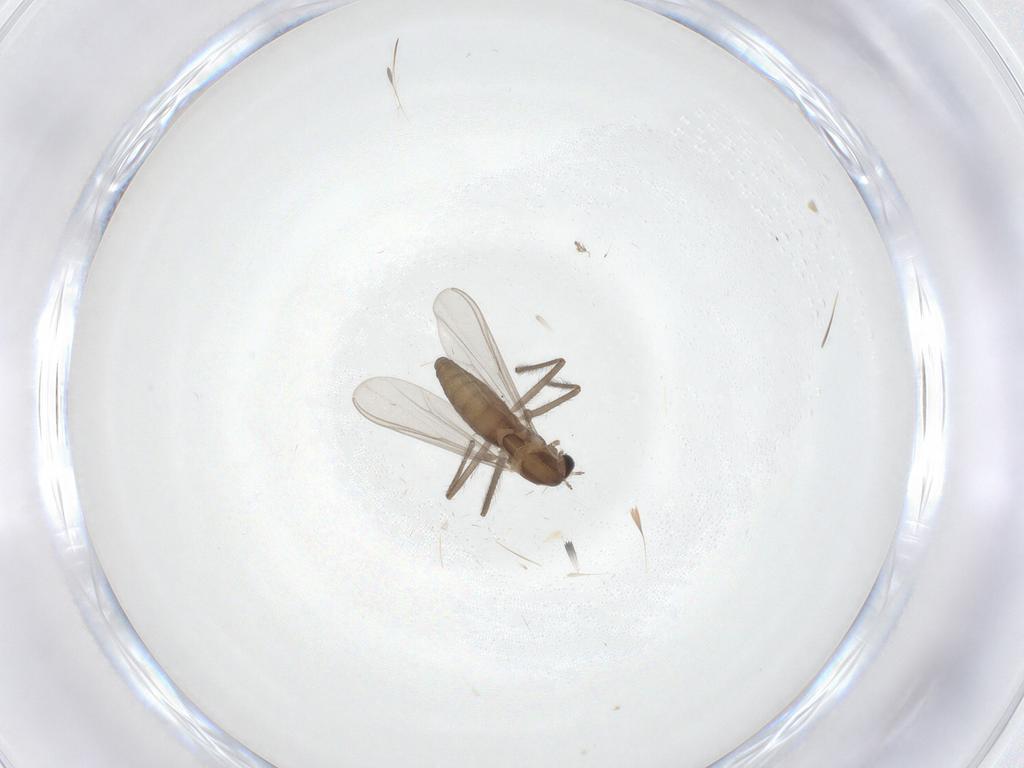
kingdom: Animalia
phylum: Arthropoda
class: Insecta
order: Diptera
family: Chironomidae
